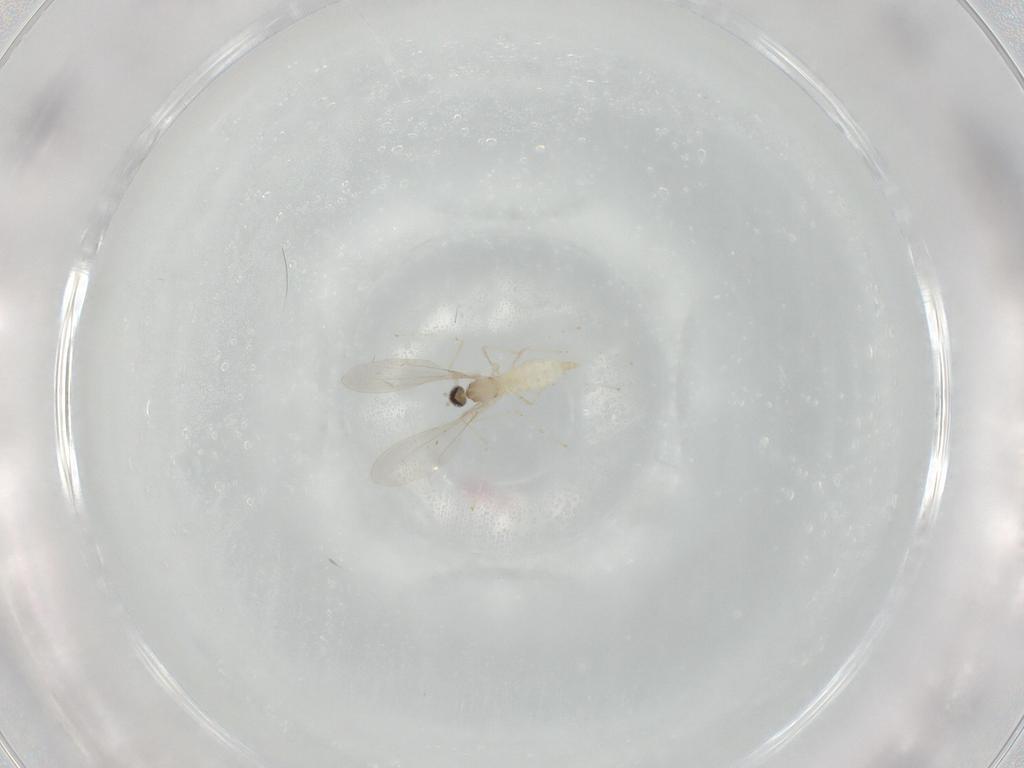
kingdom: Animalia
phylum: Arthropoda
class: Insecta
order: Diptera
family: Cecidomyiidae
